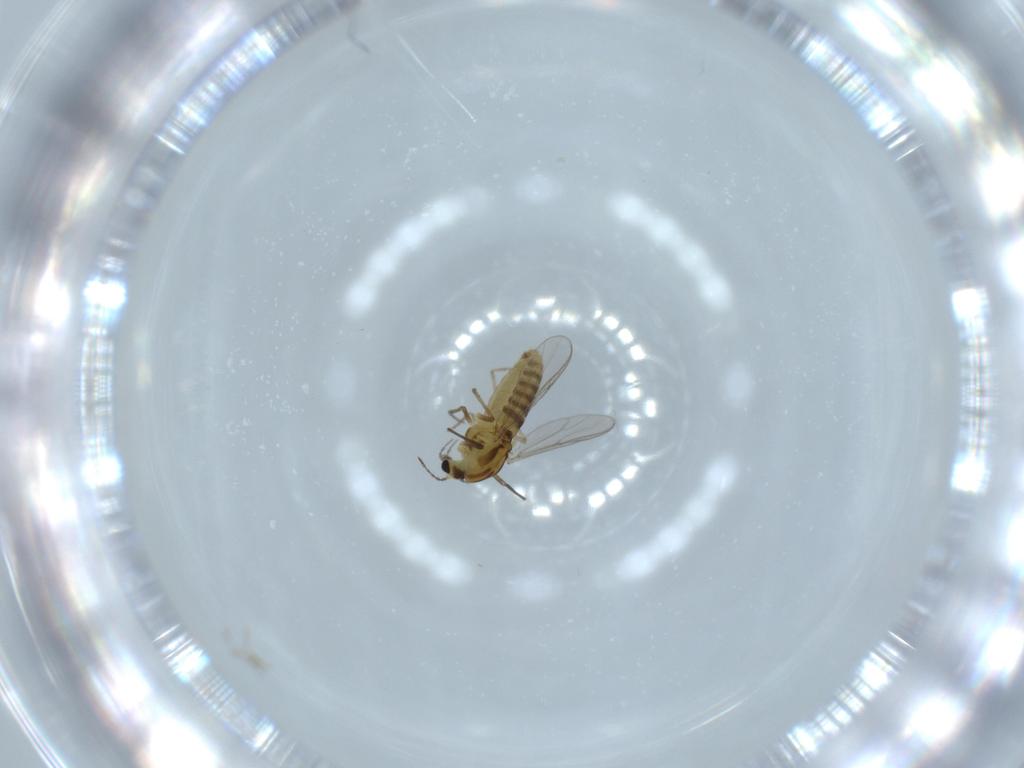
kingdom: Animalia
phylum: Arthropoda
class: Insecta
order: Diptera
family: Chironomidae
